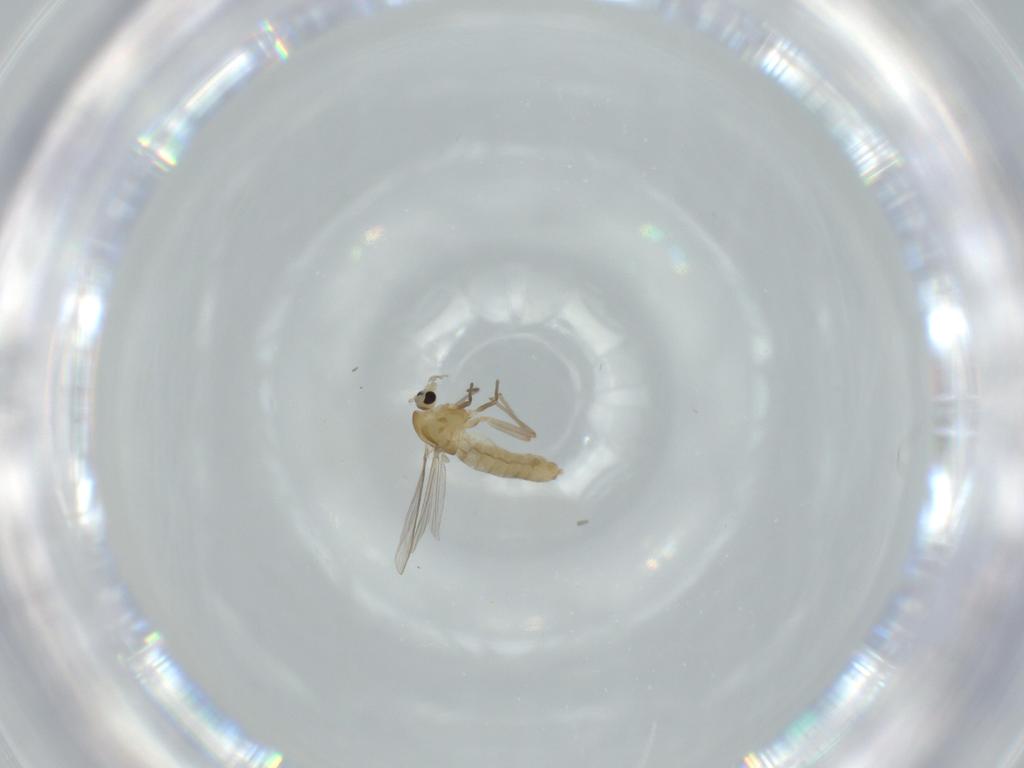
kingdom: Animalia
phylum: Arthropoda
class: Insecta
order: Diptera
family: Chironomidae
